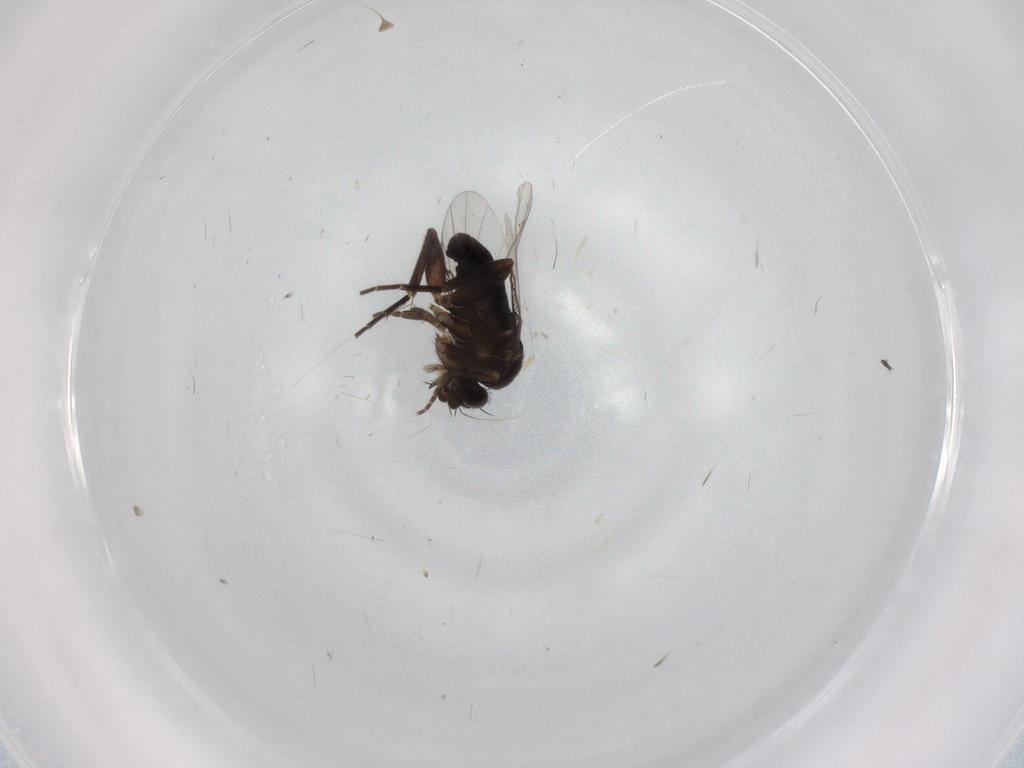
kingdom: Animalia
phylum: Arthropoda
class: Insecta
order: Diptera
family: Phoridae
